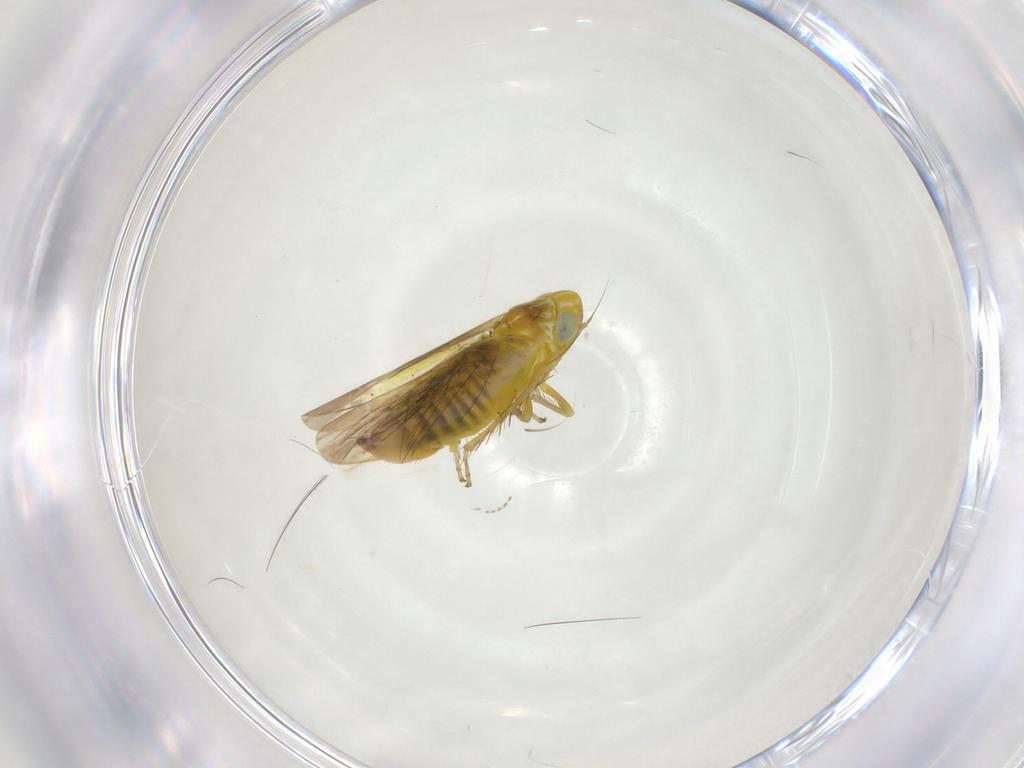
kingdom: Animalia
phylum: Arthropoda
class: Insecta
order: Hemiptera
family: Cicadellidae
